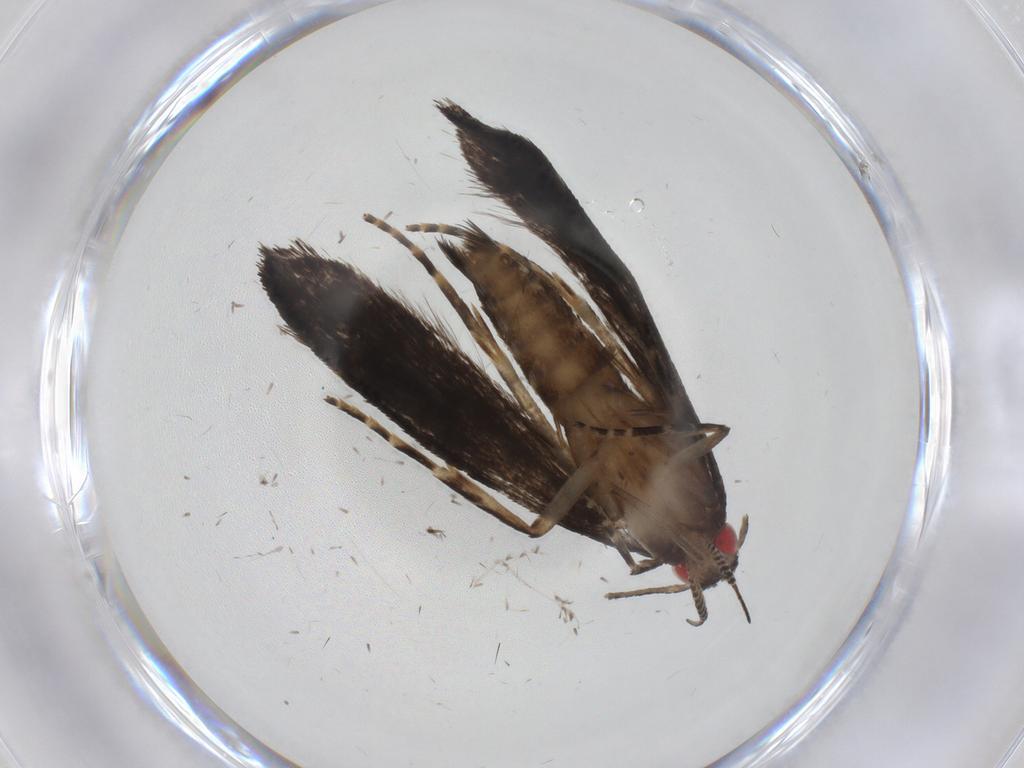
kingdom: Animalia
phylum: Arthropoda
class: Insecta
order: Lepidoptera
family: Gelechiidae
